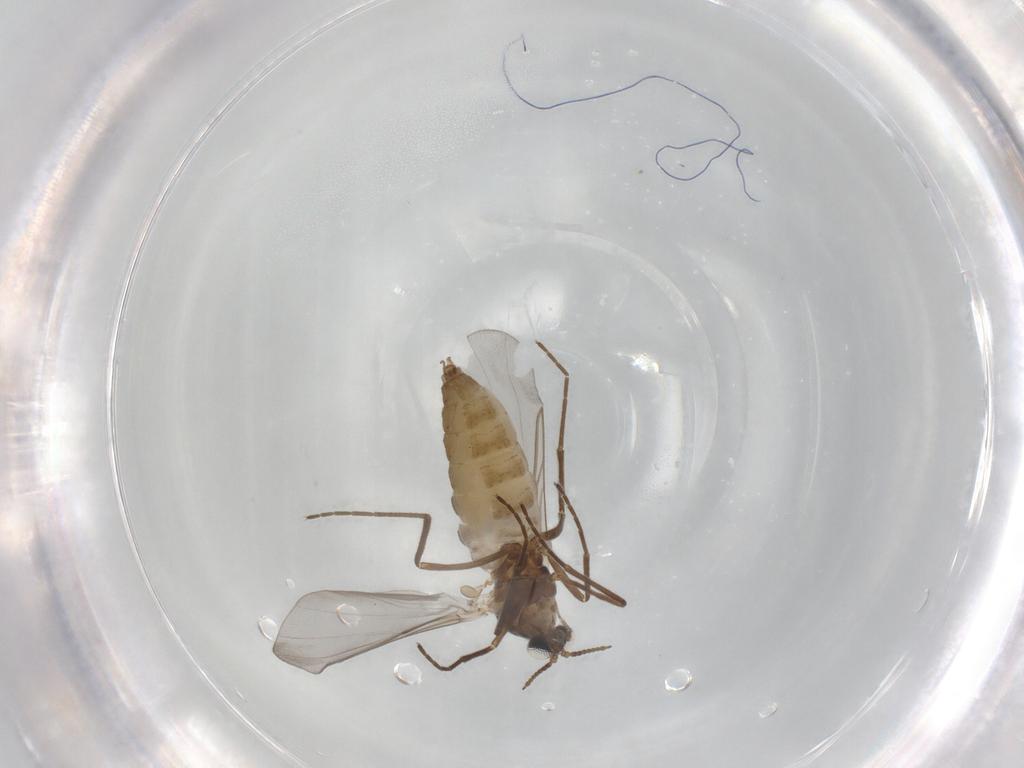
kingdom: Animalia
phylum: Arthropoda
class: Insecta
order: Diptera
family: Cecidomyiidae
